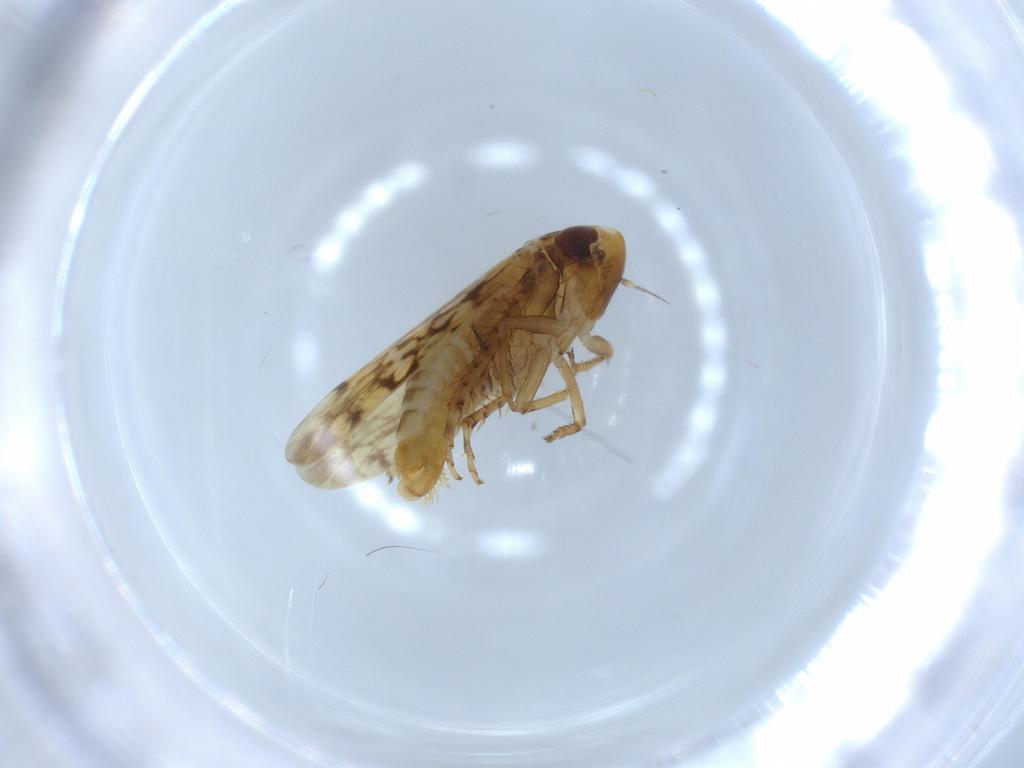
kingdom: Animalia
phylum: Arthropoda
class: Insecta
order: Hemiptera
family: Cicadellidae
